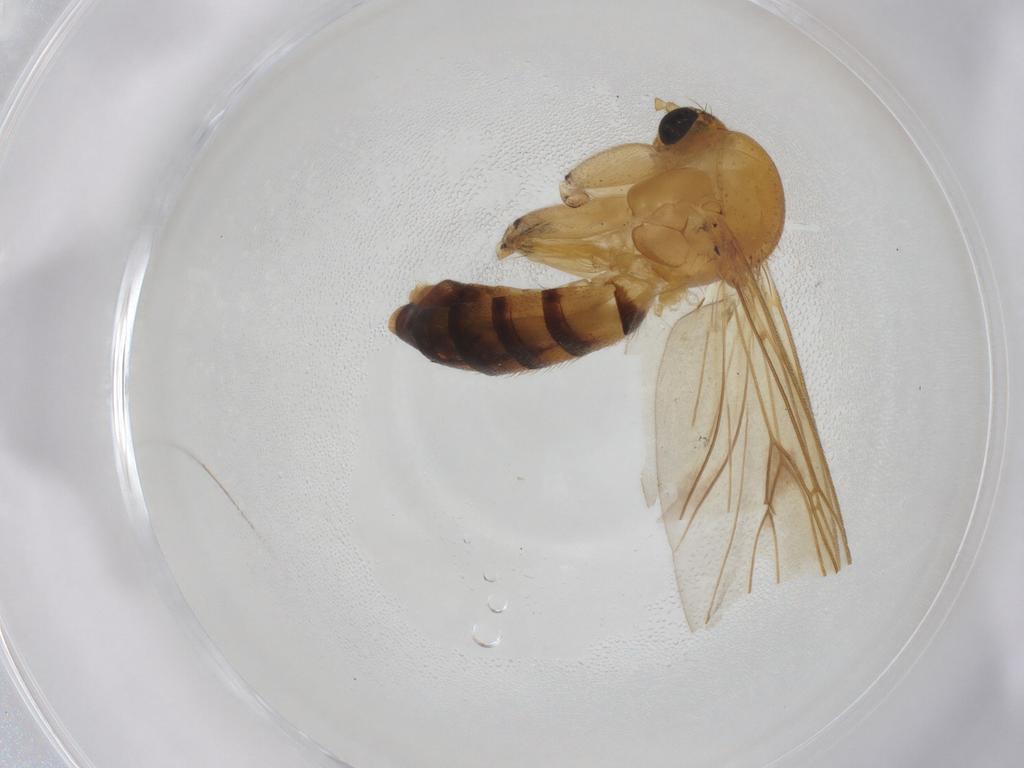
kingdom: Animalia
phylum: Arthropoda
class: Insecta
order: Diptera
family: Mycetophilidae
